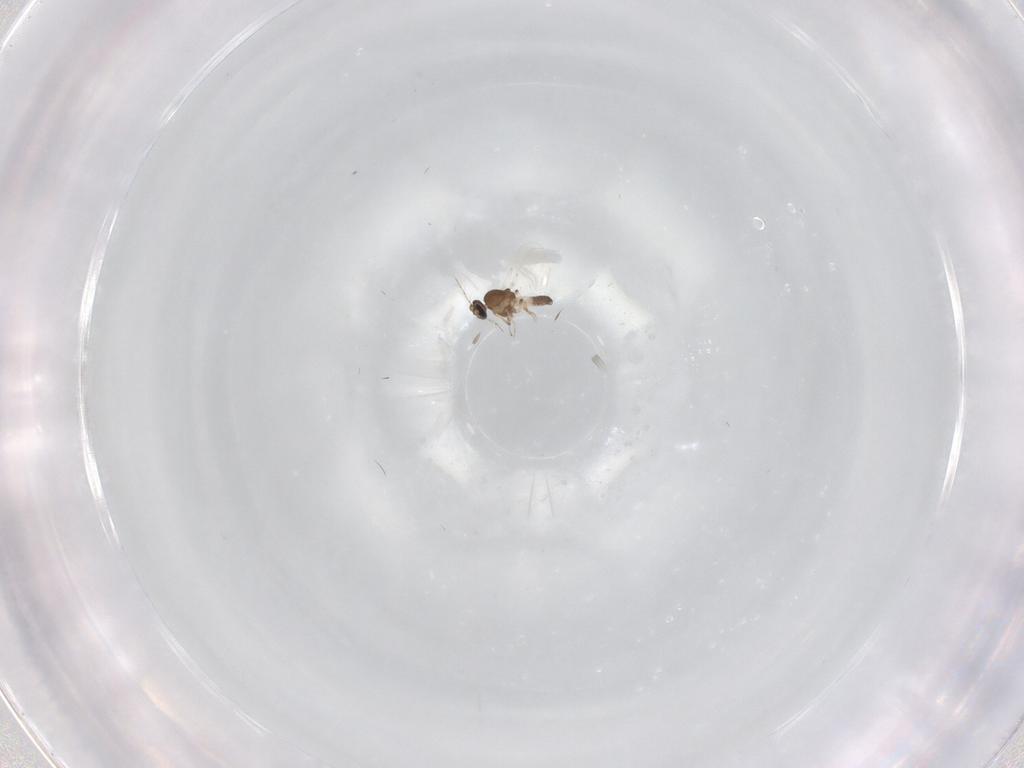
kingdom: Animalia
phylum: Arthropoda
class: Insecta
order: Diptera
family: Ceratopogonidae
